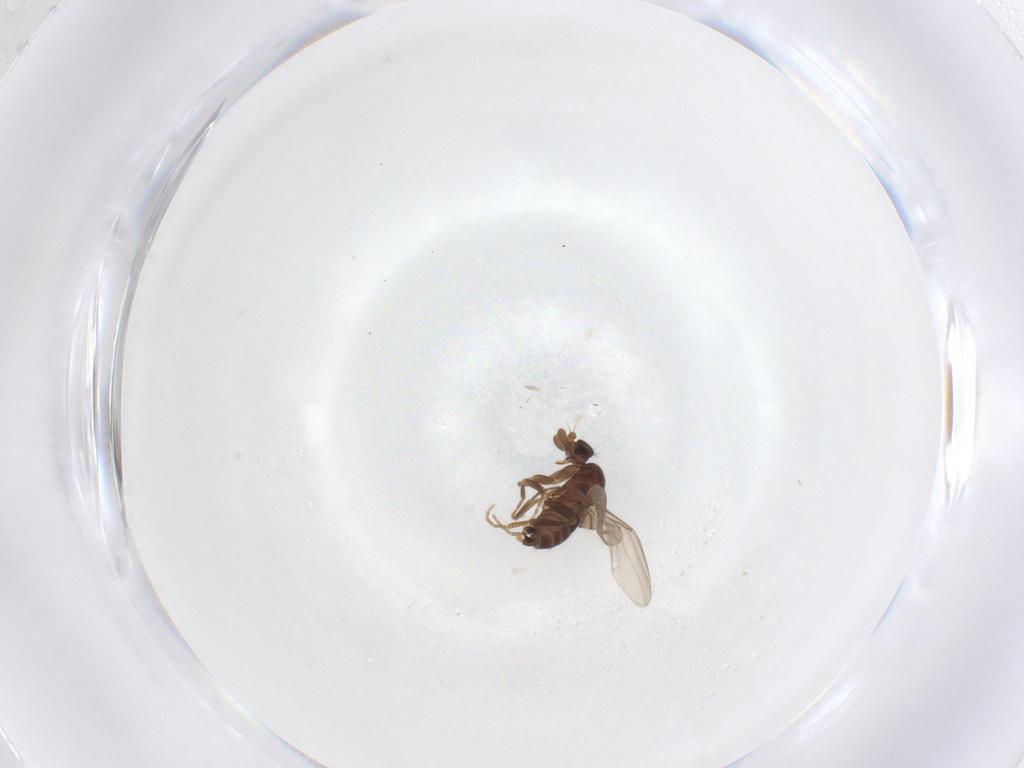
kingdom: Animalia
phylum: Arthropoda
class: Insecta
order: Diptera
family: Phoridae
